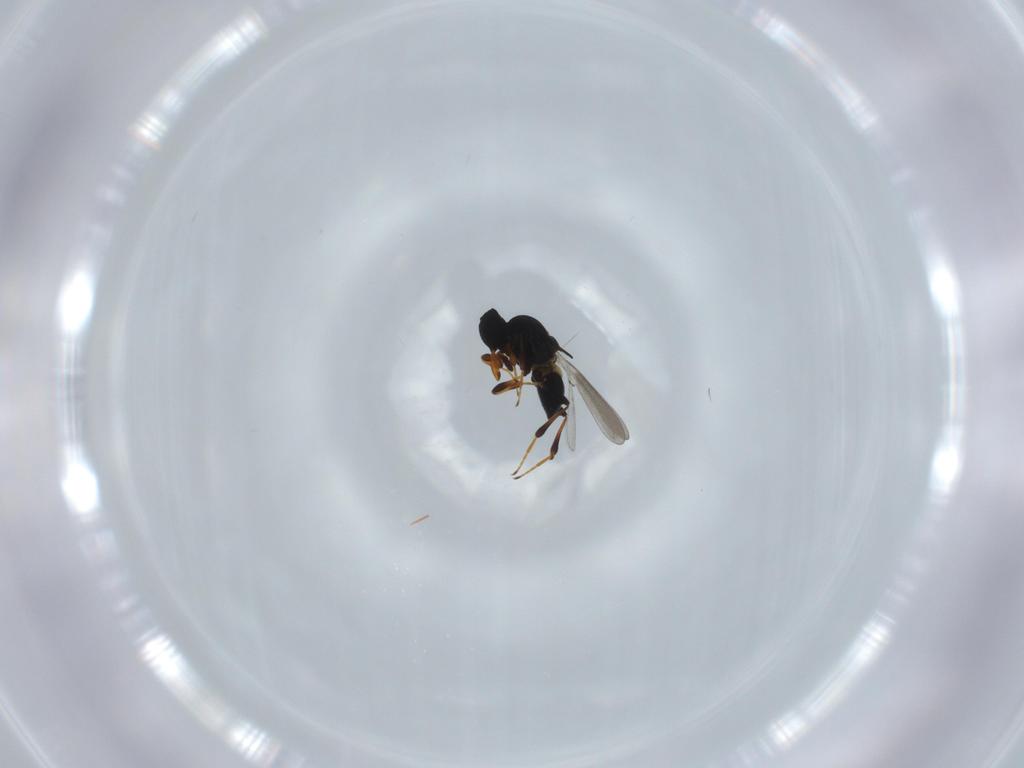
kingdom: Animalia
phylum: Arthropoda
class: Insecta
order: Hymenoptera
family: Platygastridae
